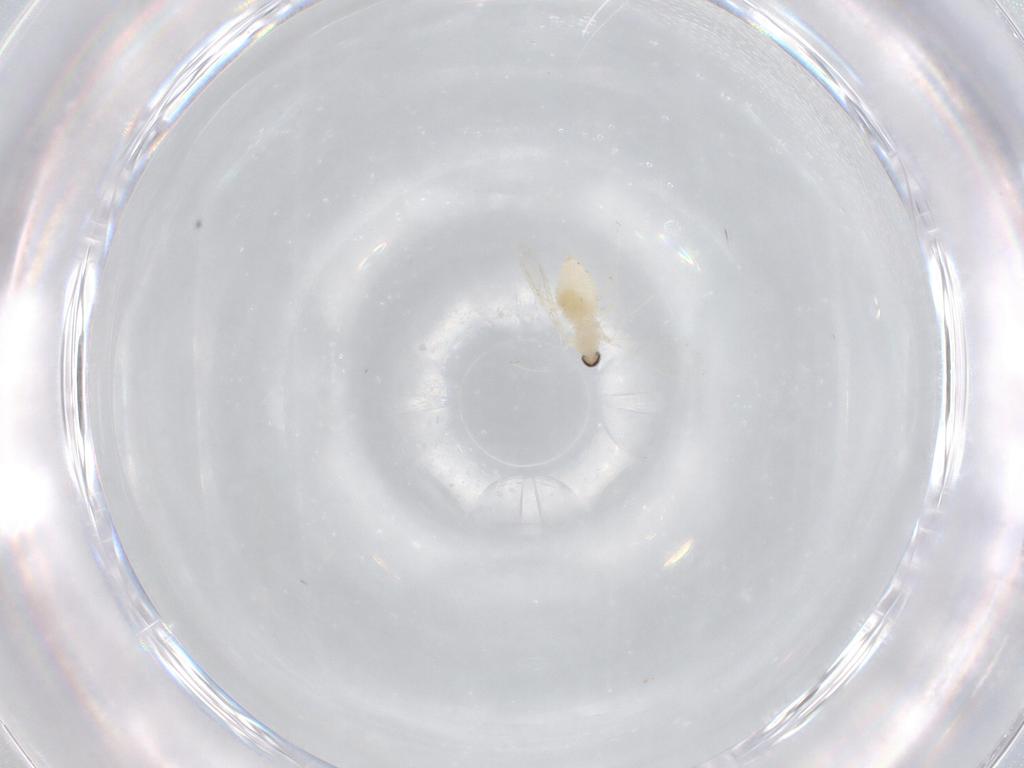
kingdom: Animalia
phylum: Arthropoda
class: Insecta
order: Diptera
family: Cecidomyiidae
